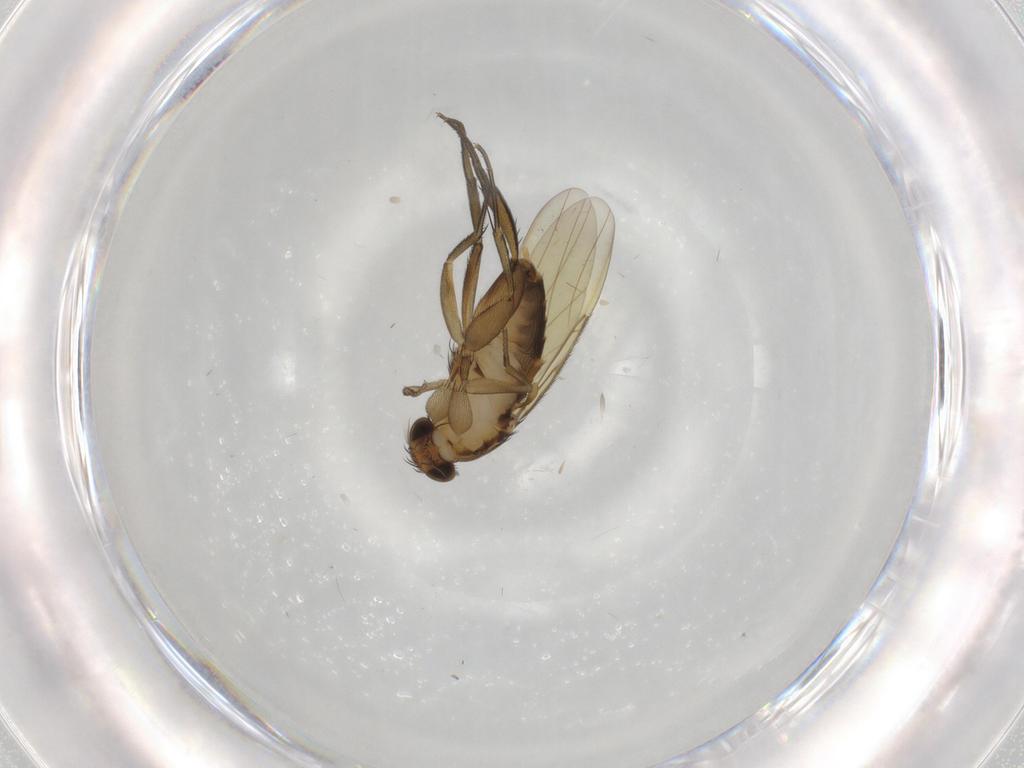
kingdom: Animalia
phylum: Arthropoda
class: Insecta
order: Diptera
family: Phoridae
